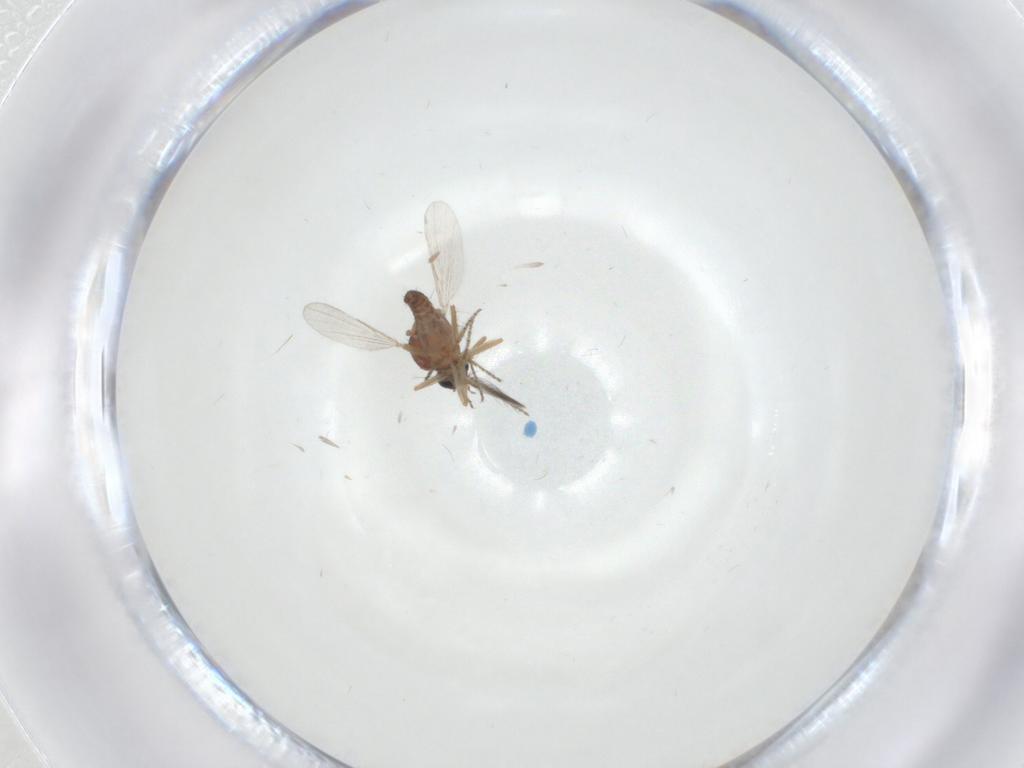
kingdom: Animalia
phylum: Arthropoda
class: Insecta
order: Diptera
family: Ceratopogonidae
